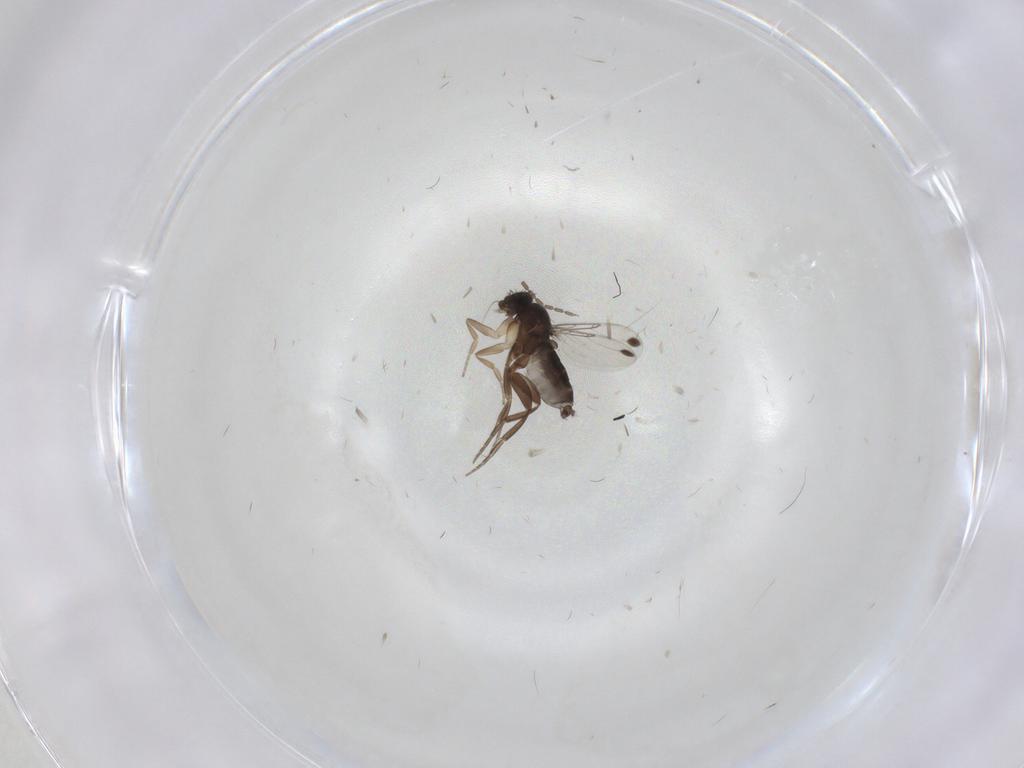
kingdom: Animalia
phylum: Arthropoda
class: Insecta
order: Diptera
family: Cecidomyiidae
